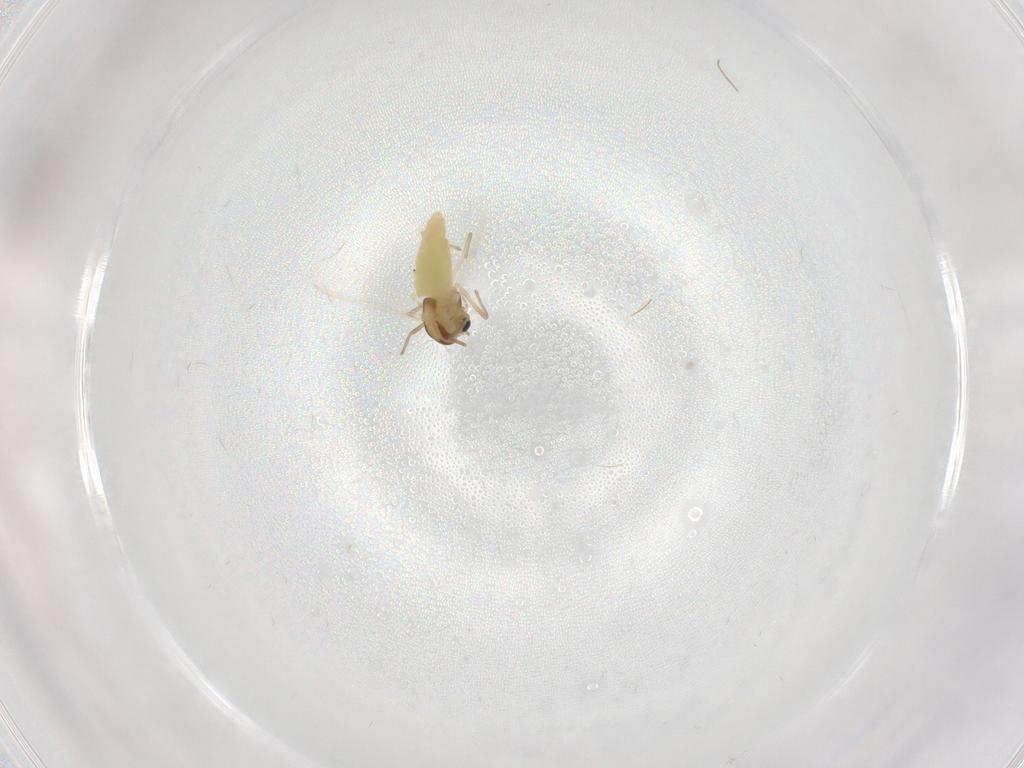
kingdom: Animalia
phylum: Arthropoda
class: Insecta
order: Diptera
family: Chironomidae
